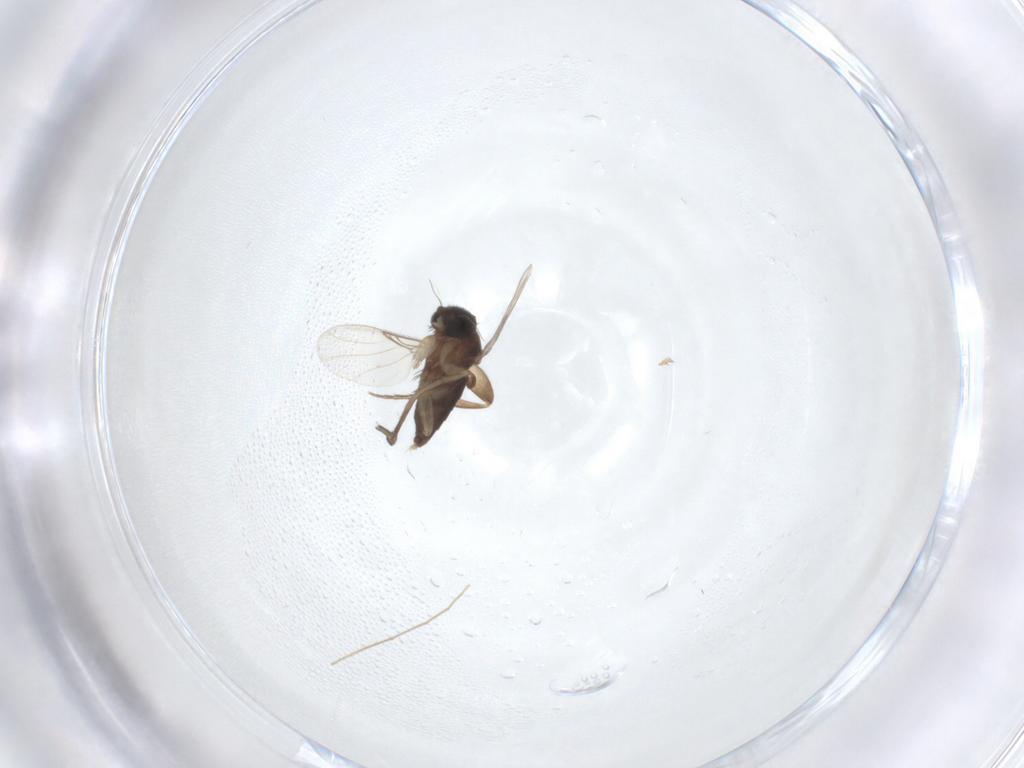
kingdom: Animalia
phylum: Arthropoda
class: Insecta
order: Diptera
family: Phoridae
